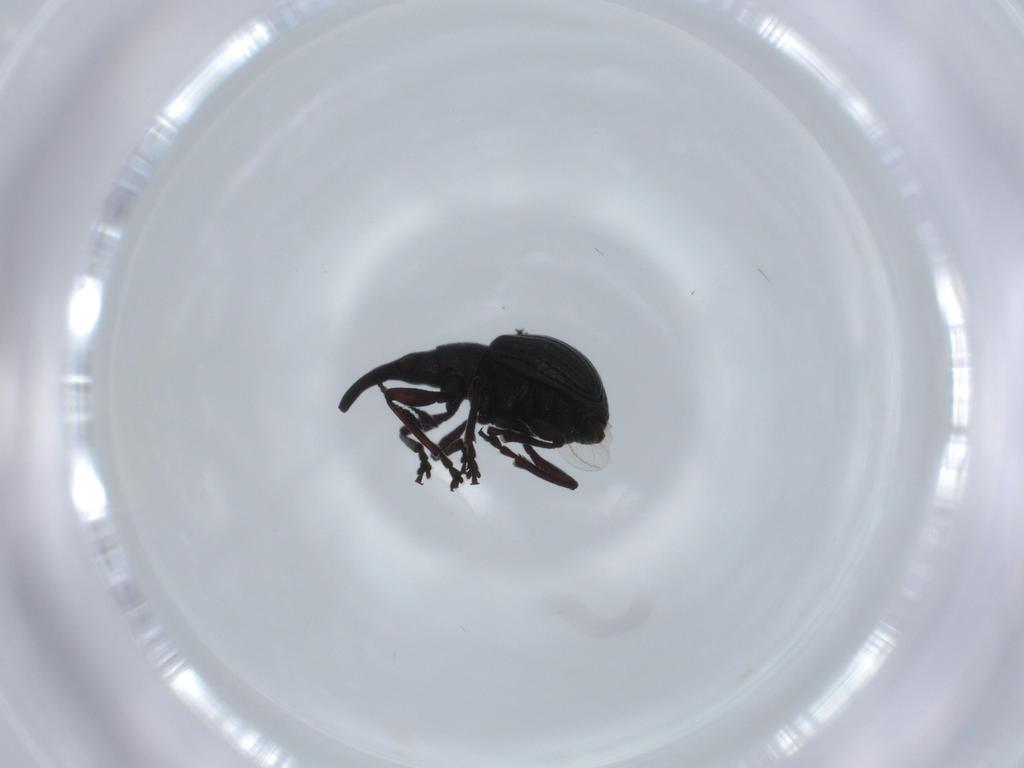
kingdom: Animalia
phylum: Arthropoda
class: Insecta
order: Coleoptera
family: Brentidae
